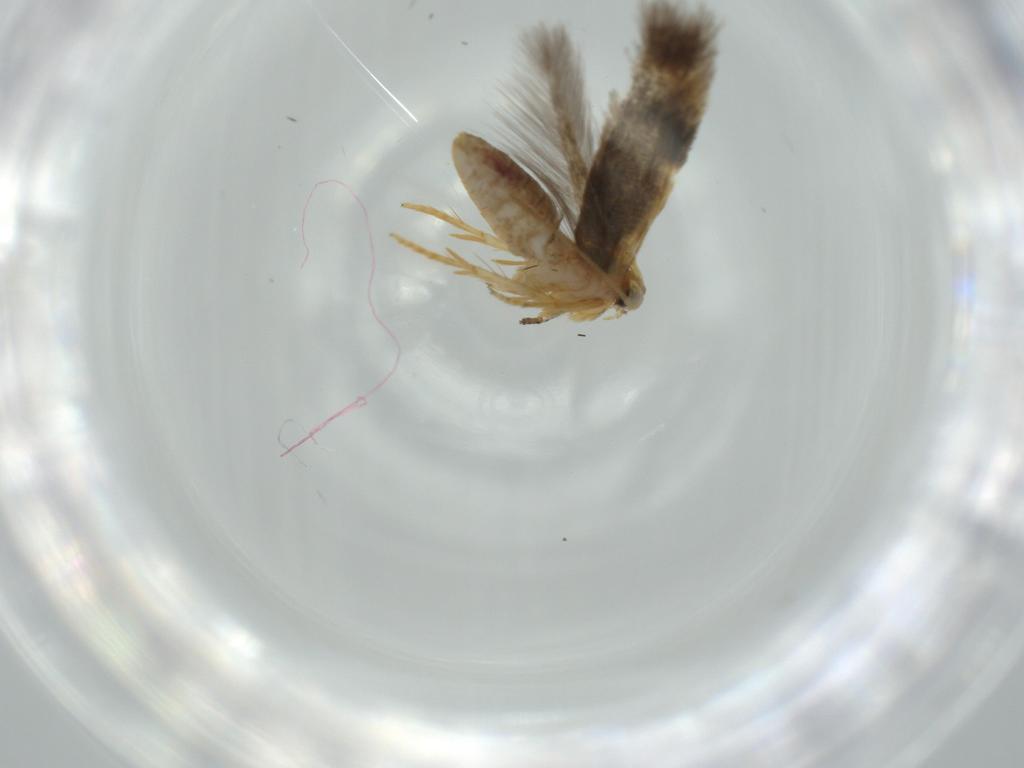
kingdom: Animalia
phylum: Arthropoda
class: Insecta
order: Lepidoptera
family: Nepticulidae
